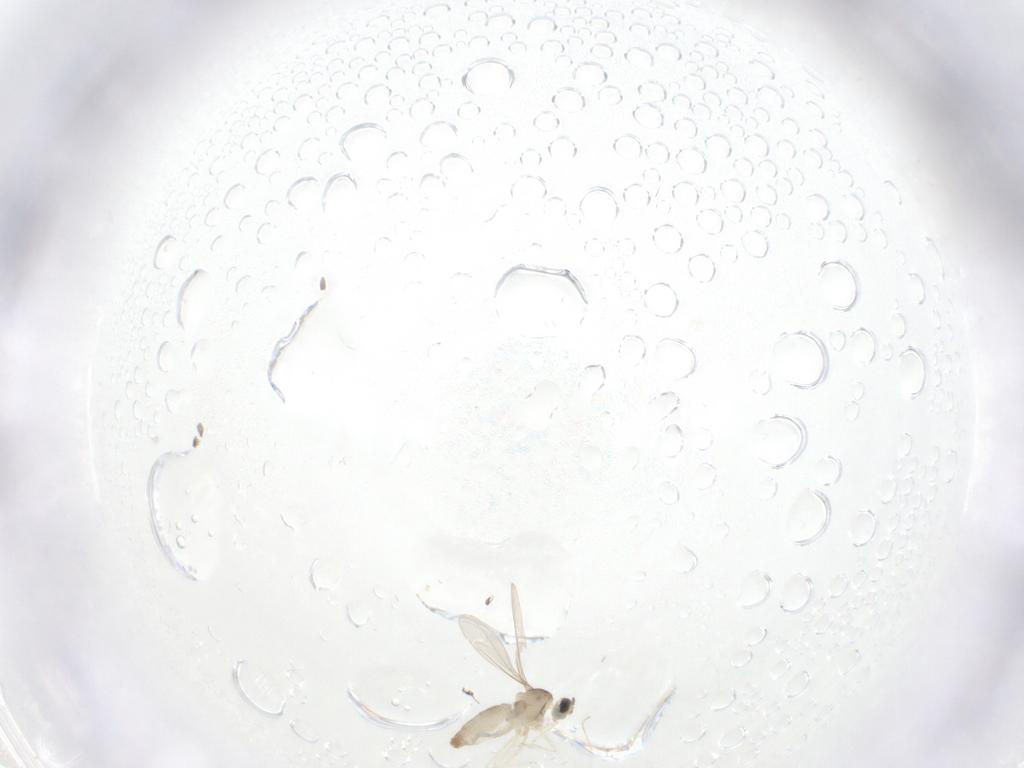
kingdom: Animalia
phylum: Arthropoda
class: Insecta
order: Diptera
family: Cecidomyiidae
